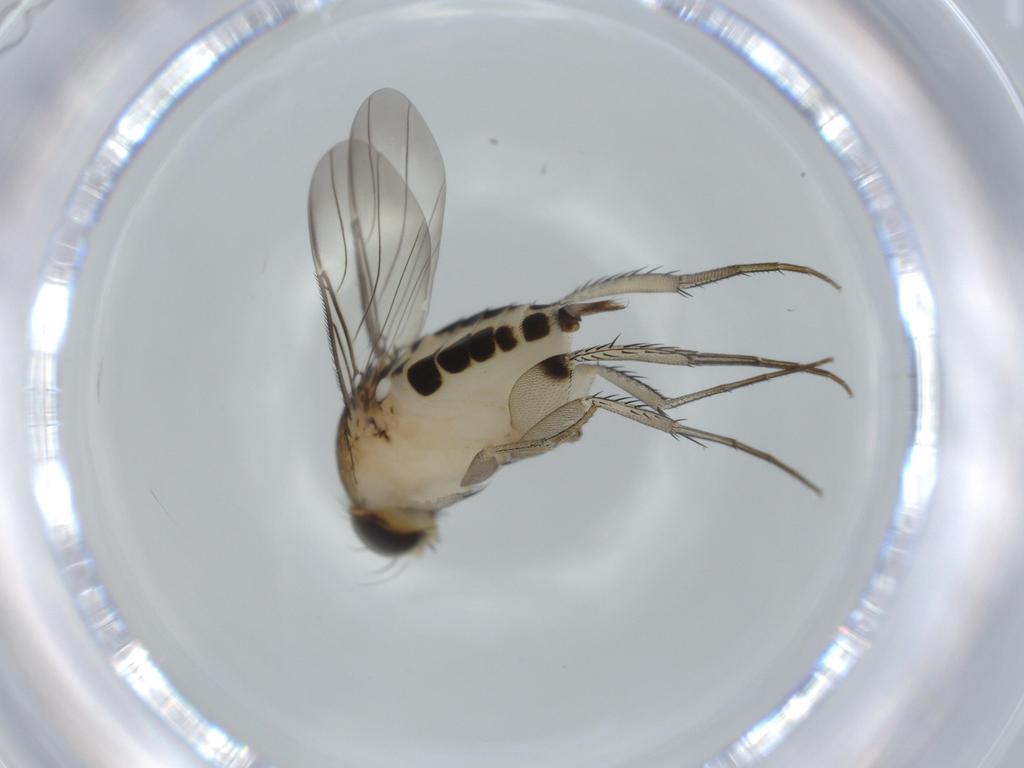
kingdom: Animalia
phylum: Arthropoda
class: Insecta
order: Diptera
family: Phoridae
